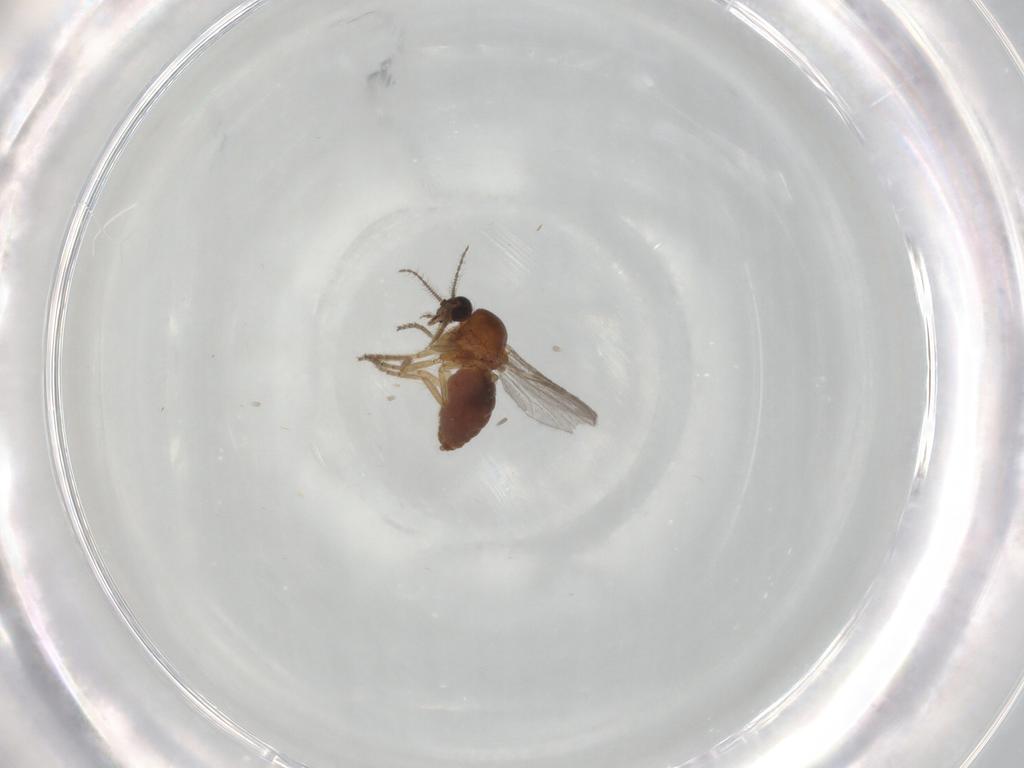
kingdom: Animalia
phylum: Arthropoda
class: Insecta
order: Diptera
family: Ceratopogonidae
